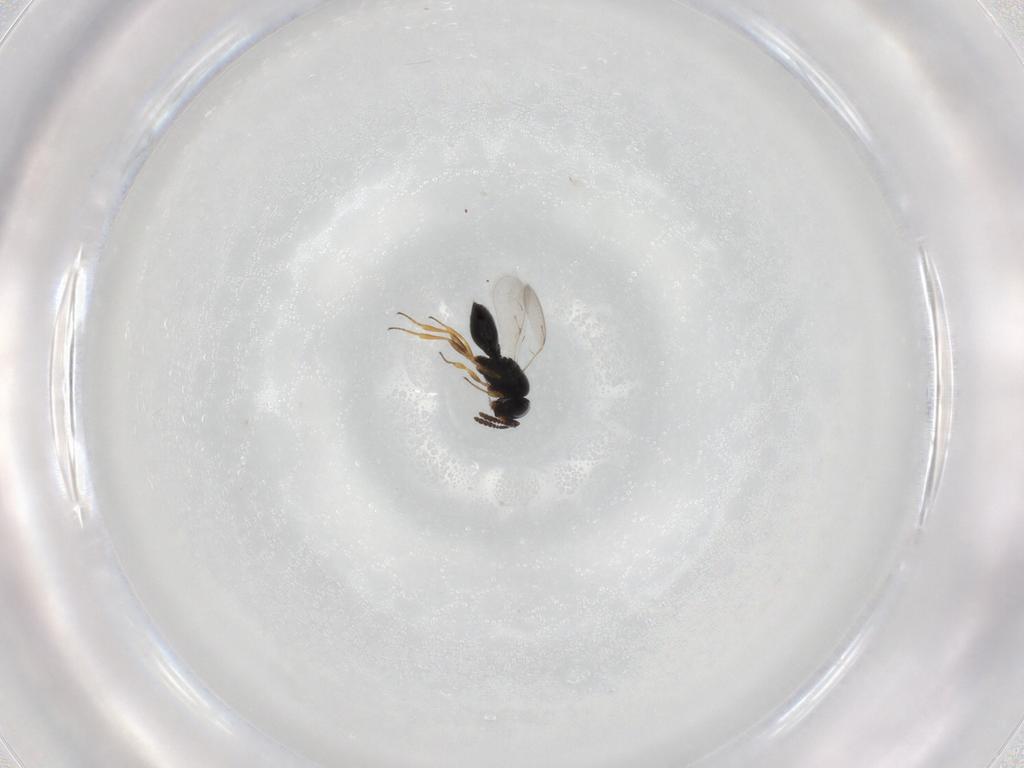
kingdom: Animalia
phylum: Arthropoda
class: Insecta
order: Hymenoptera
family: Scelionidae
